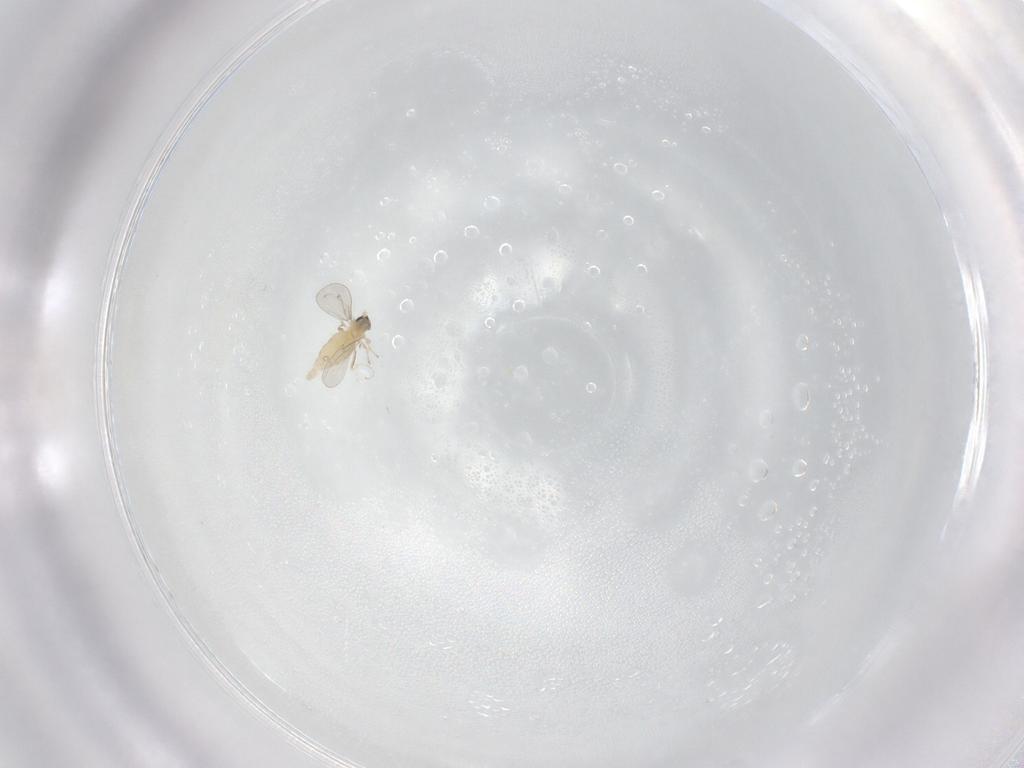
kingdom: Animalia
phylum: Arthropoda
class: Insecta
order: Diptera
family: Cecidomyiidae
